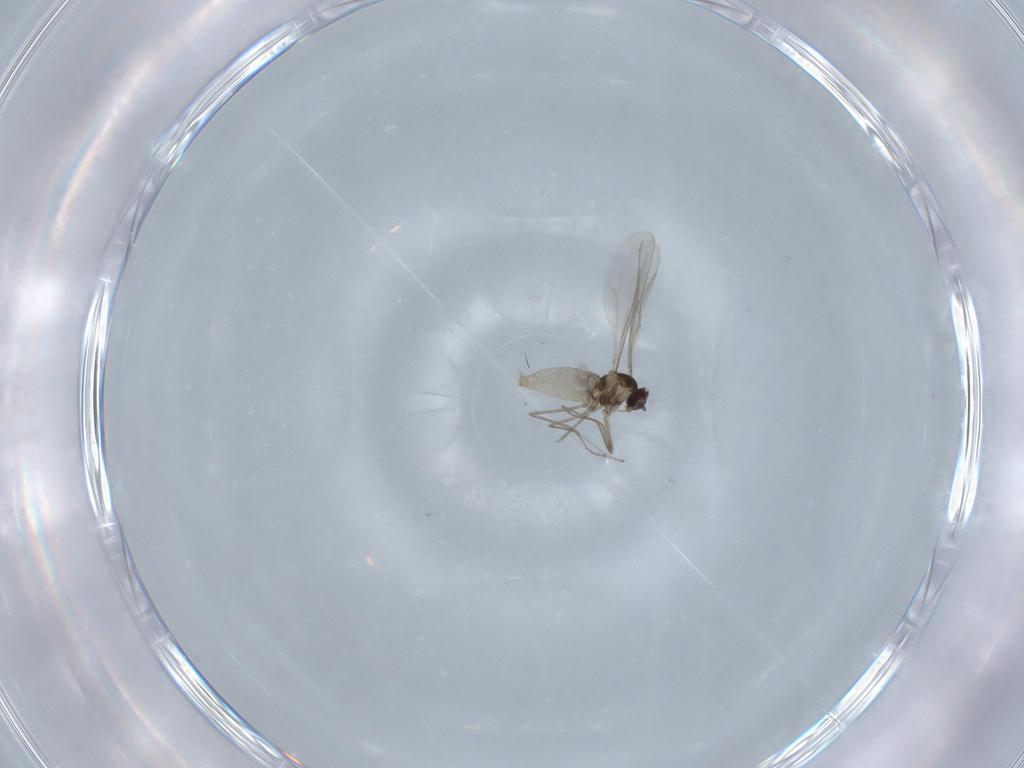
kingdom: Animalia
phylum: Arthropoda
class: Insecta
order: Diptera
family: Cecidomyiidae
